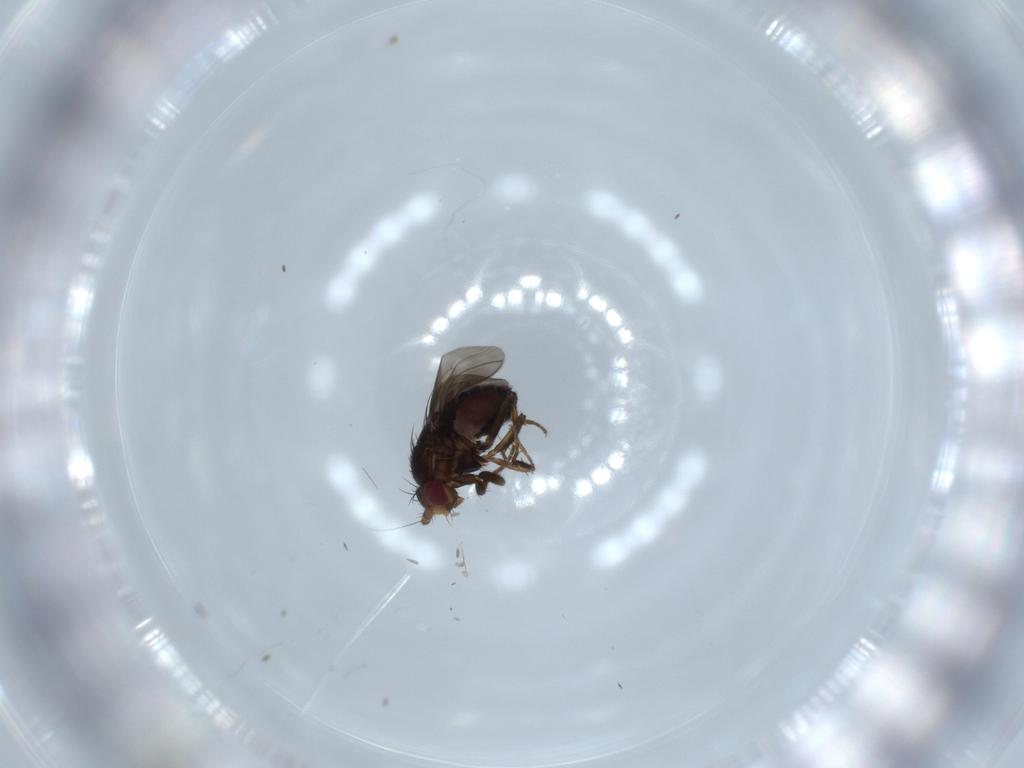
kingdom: Animalia
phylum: Arthropoda
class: Insecta
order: Diptera
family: Sphaeroceridae
